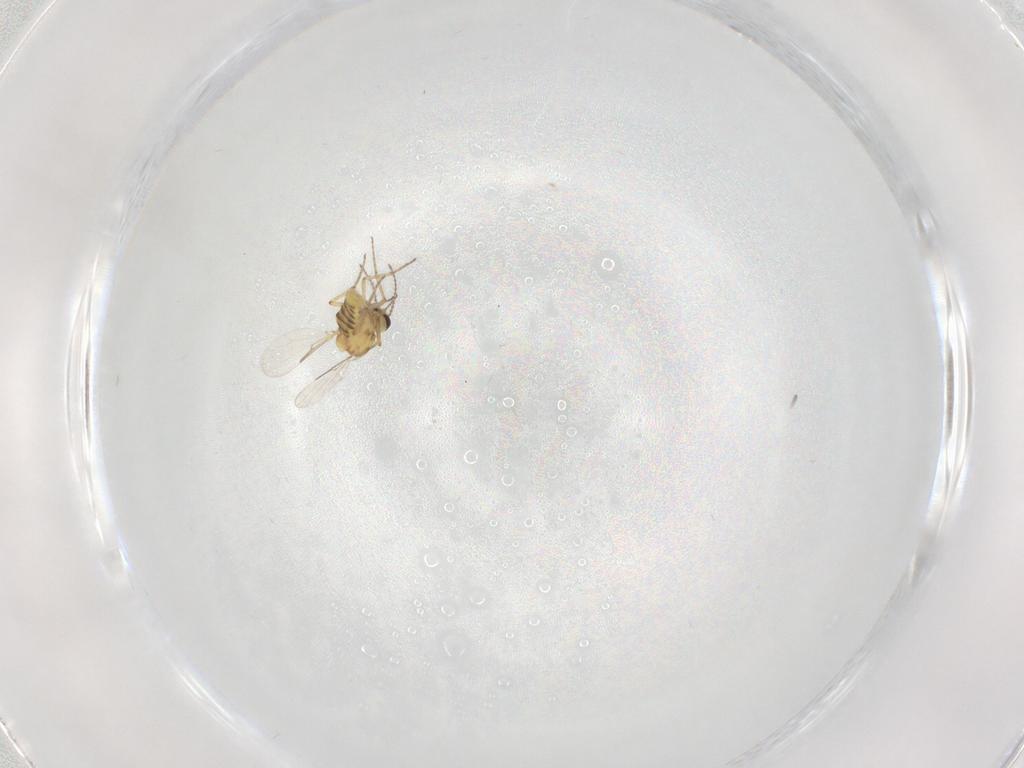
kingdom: Animalia
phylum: Arthropoda
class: Insecta
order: Diptera
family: Ceratopogonidae
